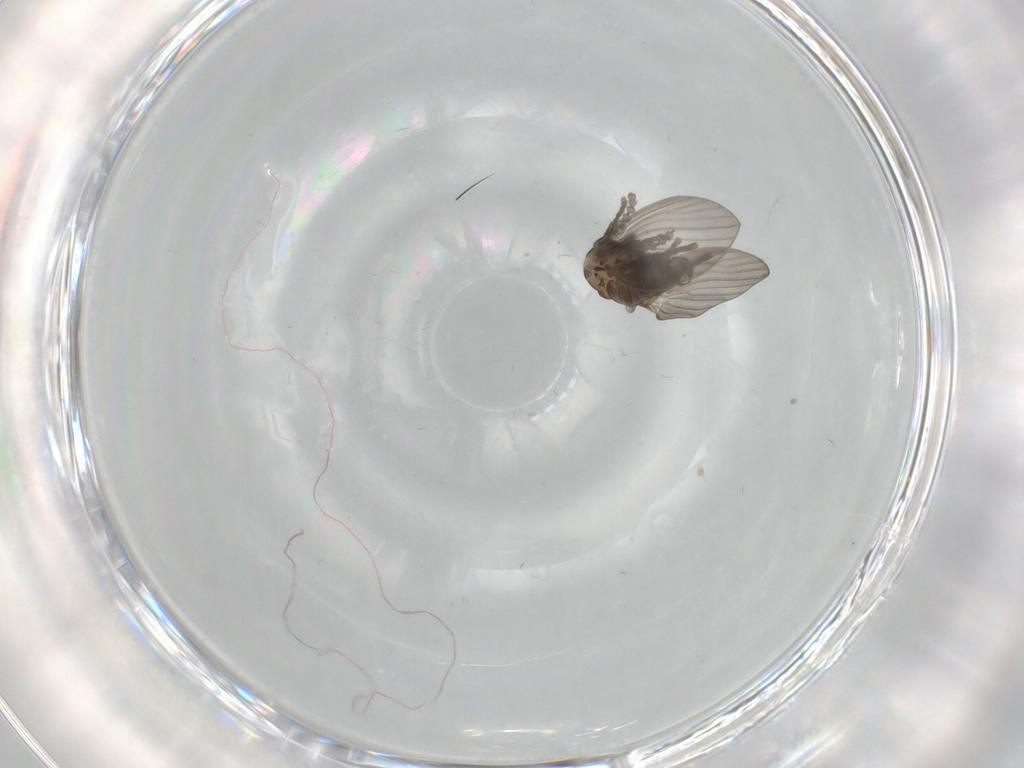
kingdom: Animalia
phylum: Arthropoda
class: Insecta
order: Diptera
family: Psychodidae
